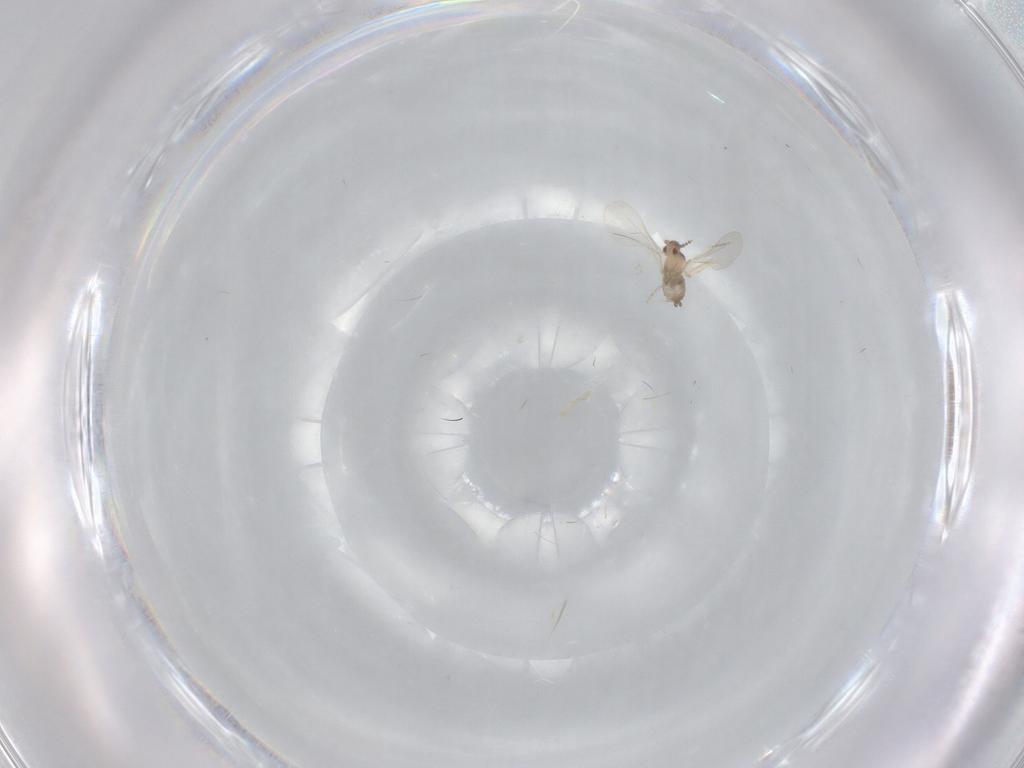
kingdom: Animalia
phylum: Arthropoda
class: Insecta
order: Diptera
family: Cecidomyiidae
